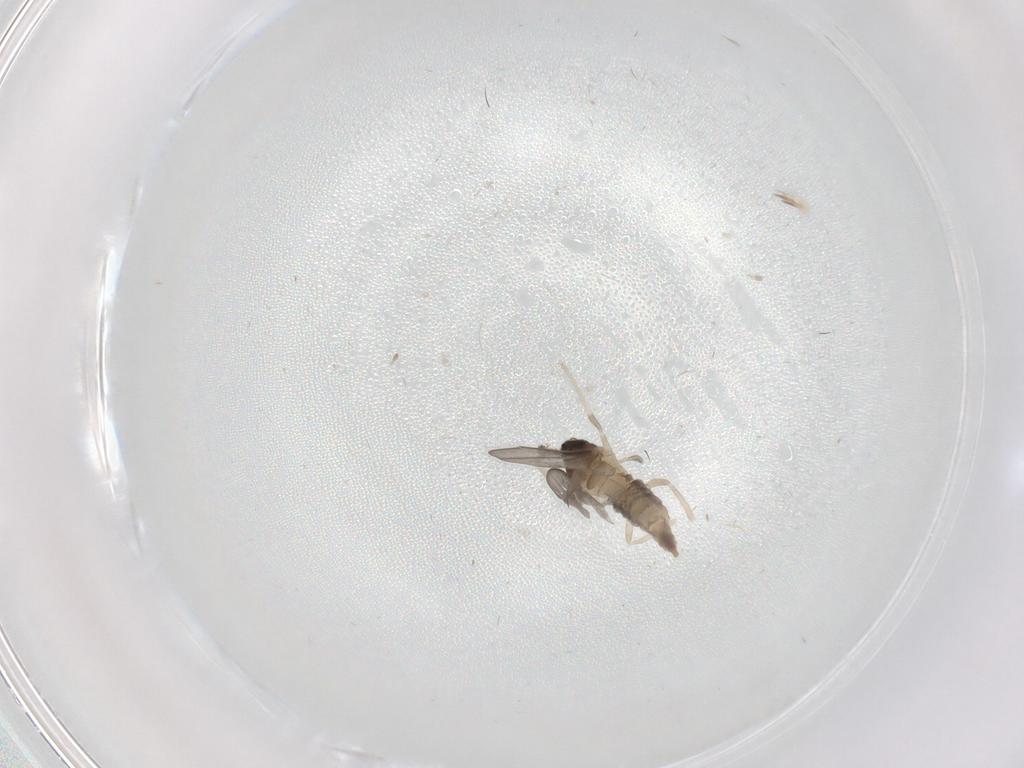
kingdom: Animalia
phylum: Arthropoda
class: Insecta
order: Diptera
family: Chironomidae
